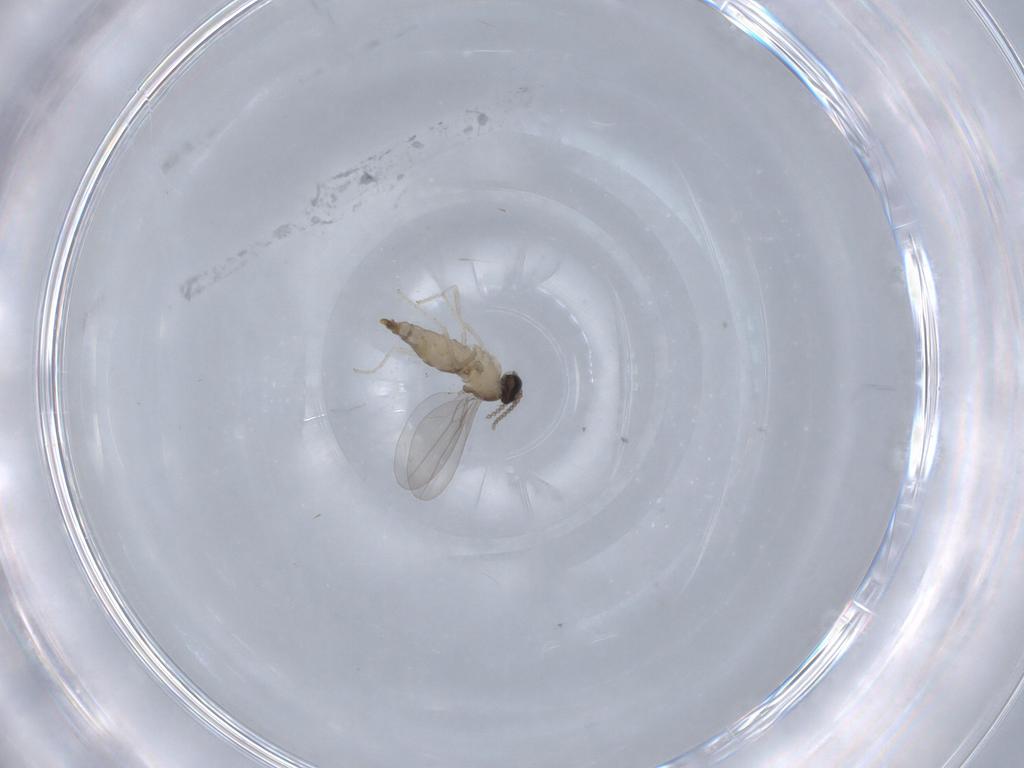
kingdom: Animalia
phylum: Arthropoda
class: Insecta
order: Diptera
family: Cecidomyiidae
